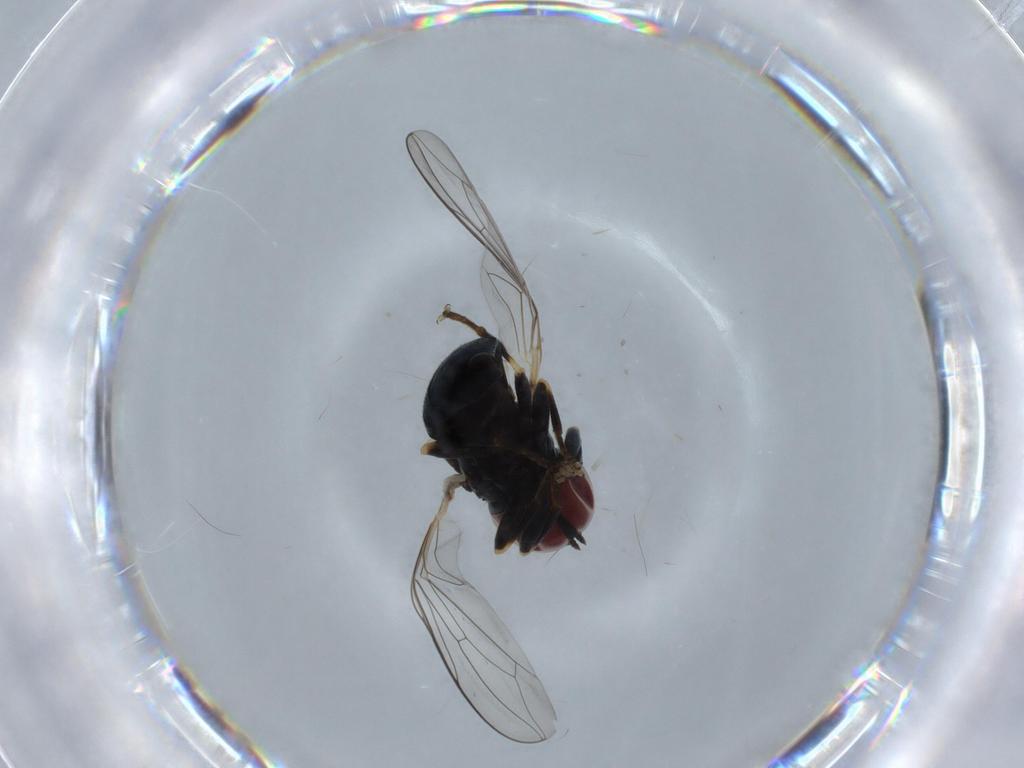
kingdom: Animalia
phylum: Arthropoda
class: Insecta
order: Diptera
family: Pipunculidae
